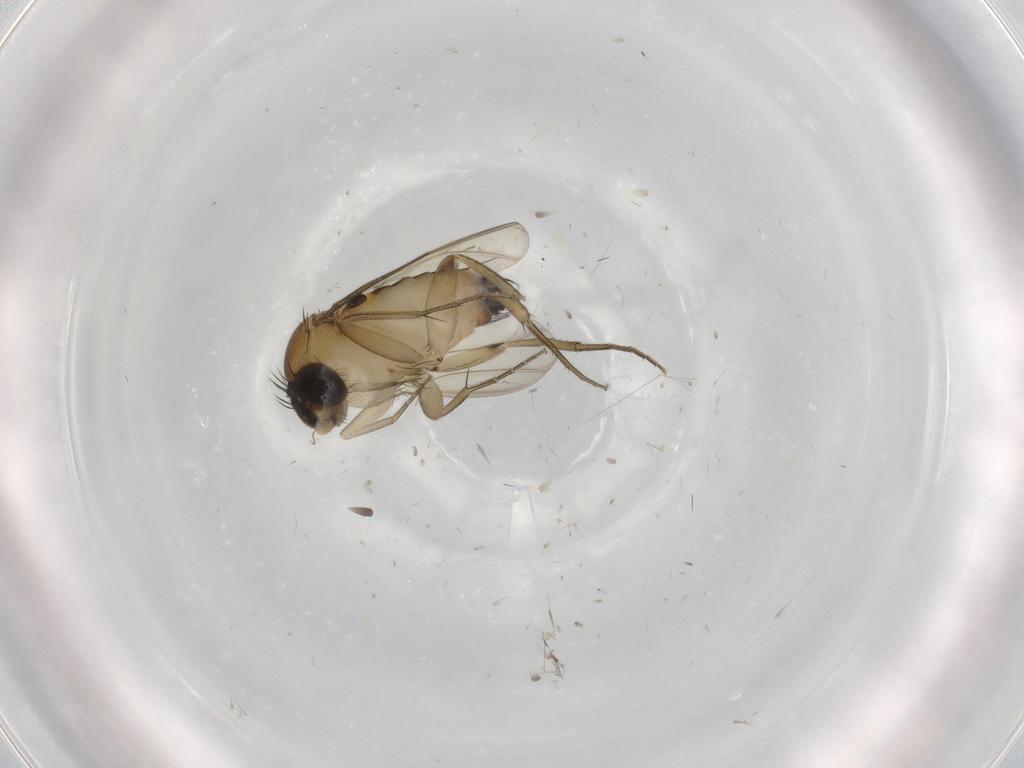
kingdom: Animalia
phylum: Arthropoda
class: Insecta
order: Diptera
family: Phoridae
